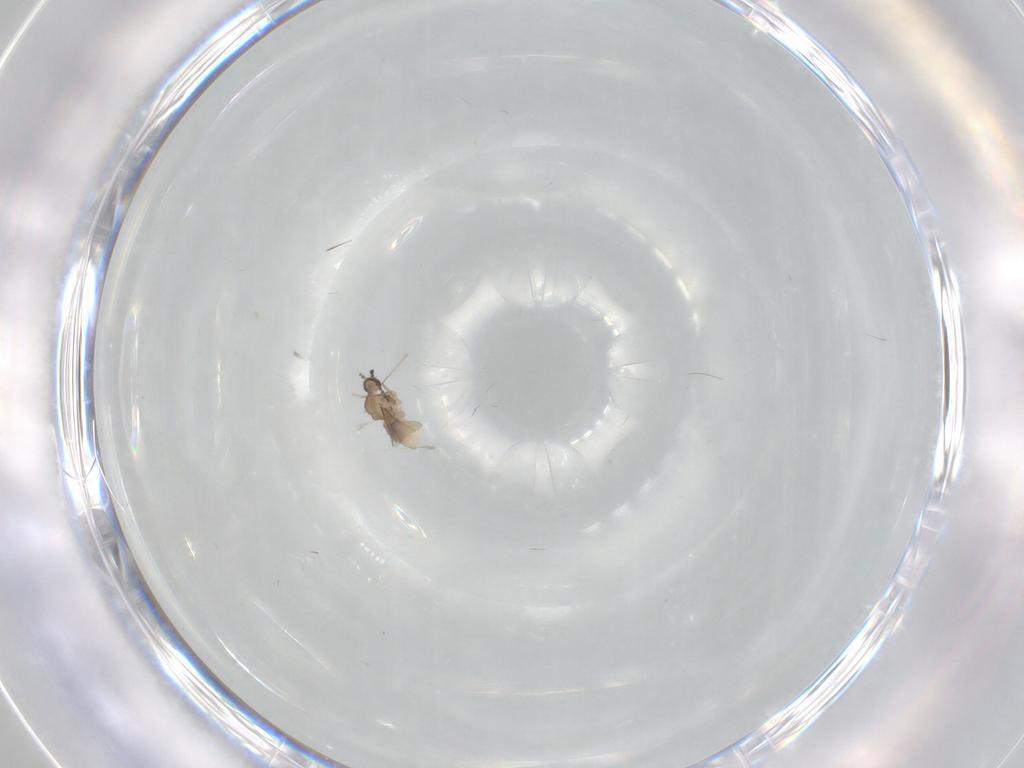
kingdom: Animalia
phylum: Arthropoda
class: Insecta
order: Diptera
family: Cecidomyiidae
